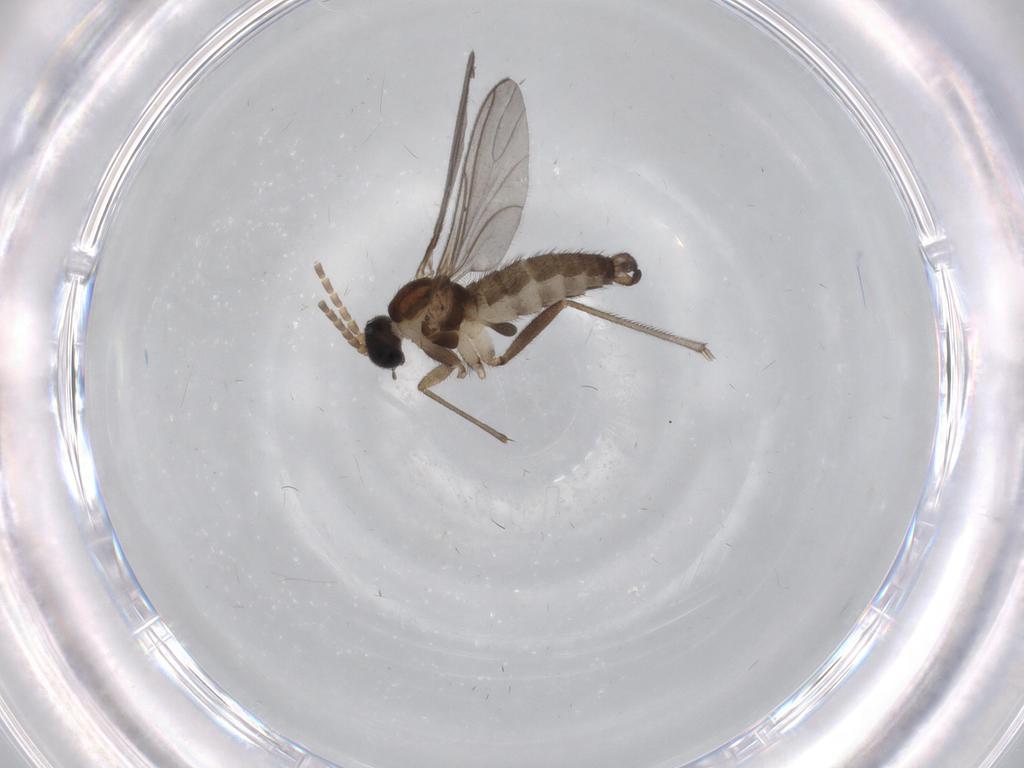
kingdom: Animalia
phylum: Arthropoda
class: Insecta
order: Diptera
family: Sciaridae
